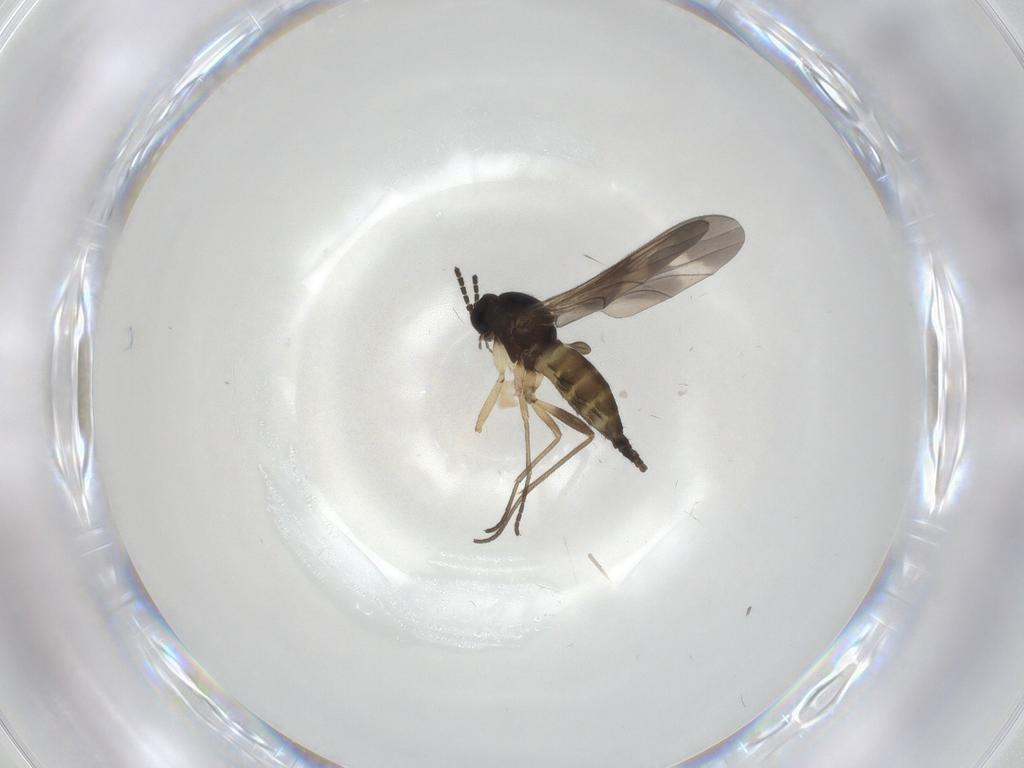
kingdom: Animalia
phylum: Arthropoda
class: Insecta
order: Diptera
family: Sciaridae
